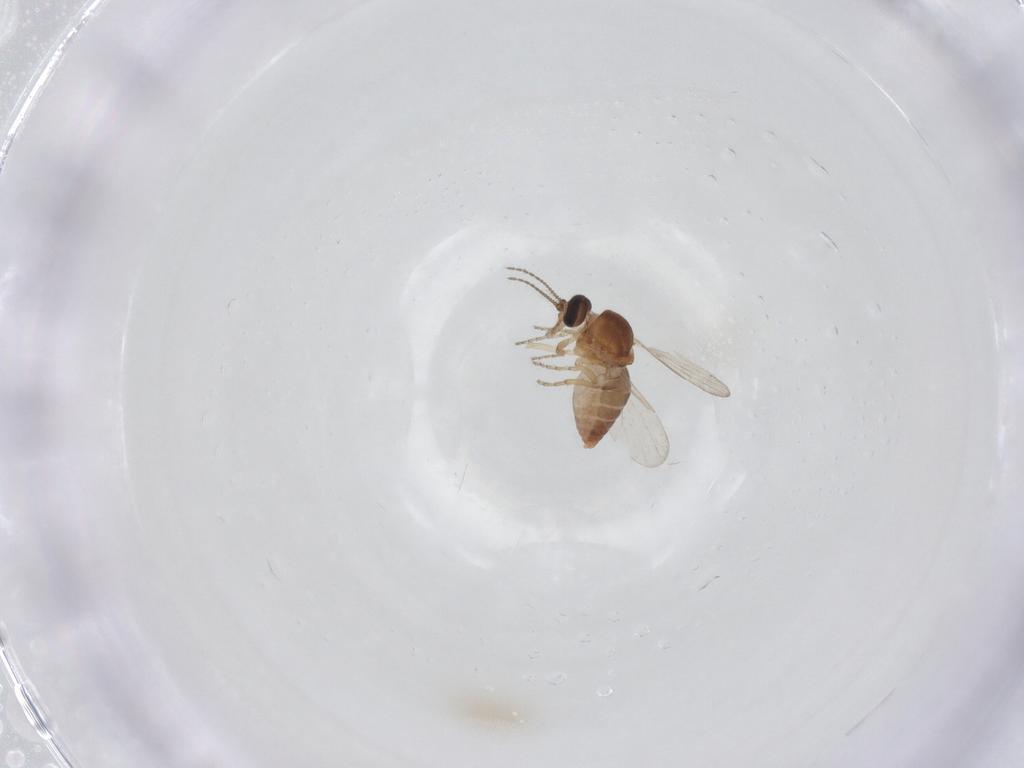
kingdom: Animalia
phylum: Arthropoda
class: Insecta
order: Diptera
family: Ceratopogonidae
